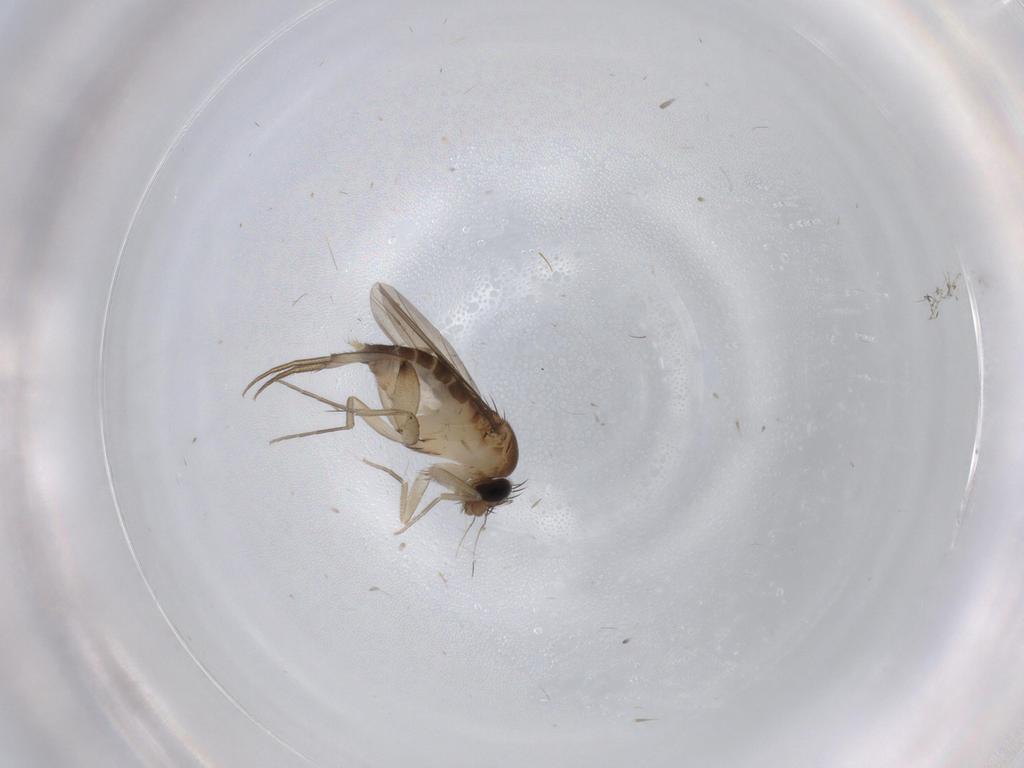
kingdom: Animalia
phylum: Arthropoda
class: Insecta
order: Diptera
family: Phoridae
